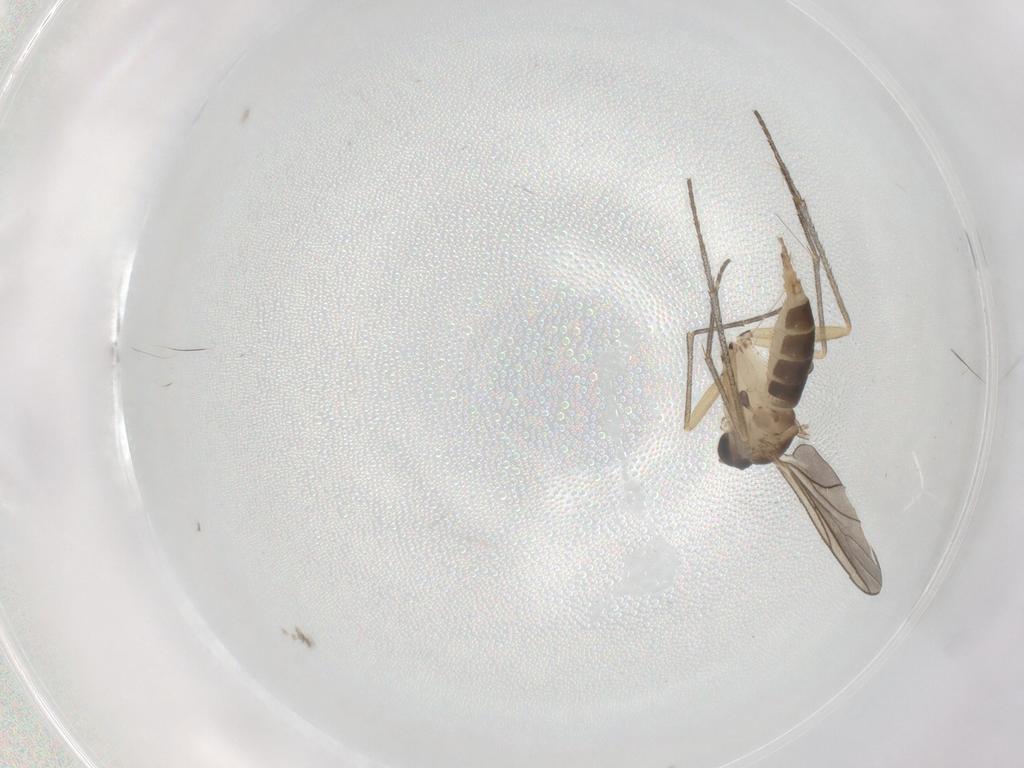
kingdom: Animalia
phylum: Arthropoda
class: Insecta
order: Diptera
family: Sciaridae
